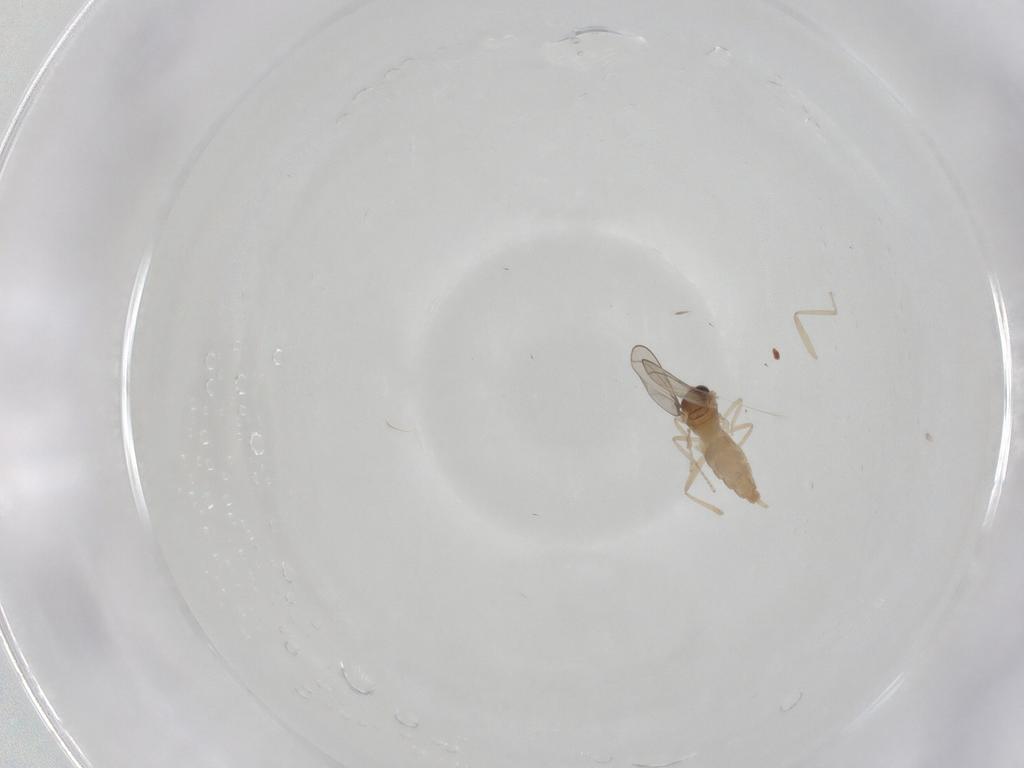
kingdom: Animalia
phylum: Arthropoda
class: Insecta
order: Diptera
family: Cecidomyiidae
